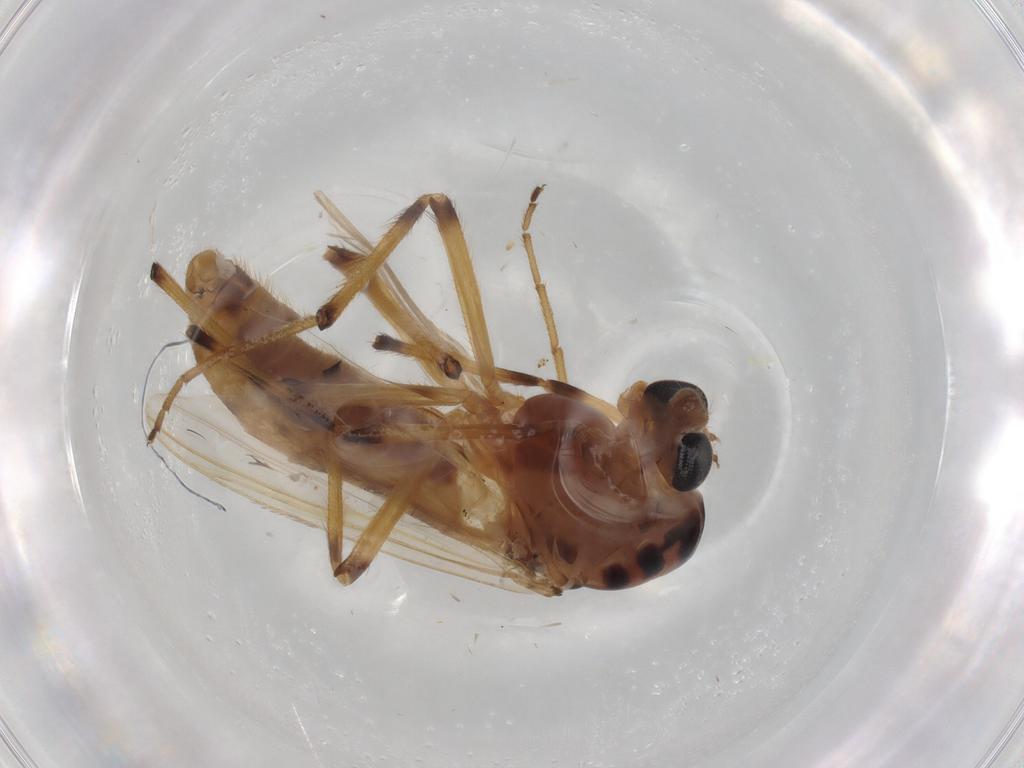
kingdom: Animalia
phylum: Arthropoda
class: Insecta
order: Diptera
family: Chironomidae
